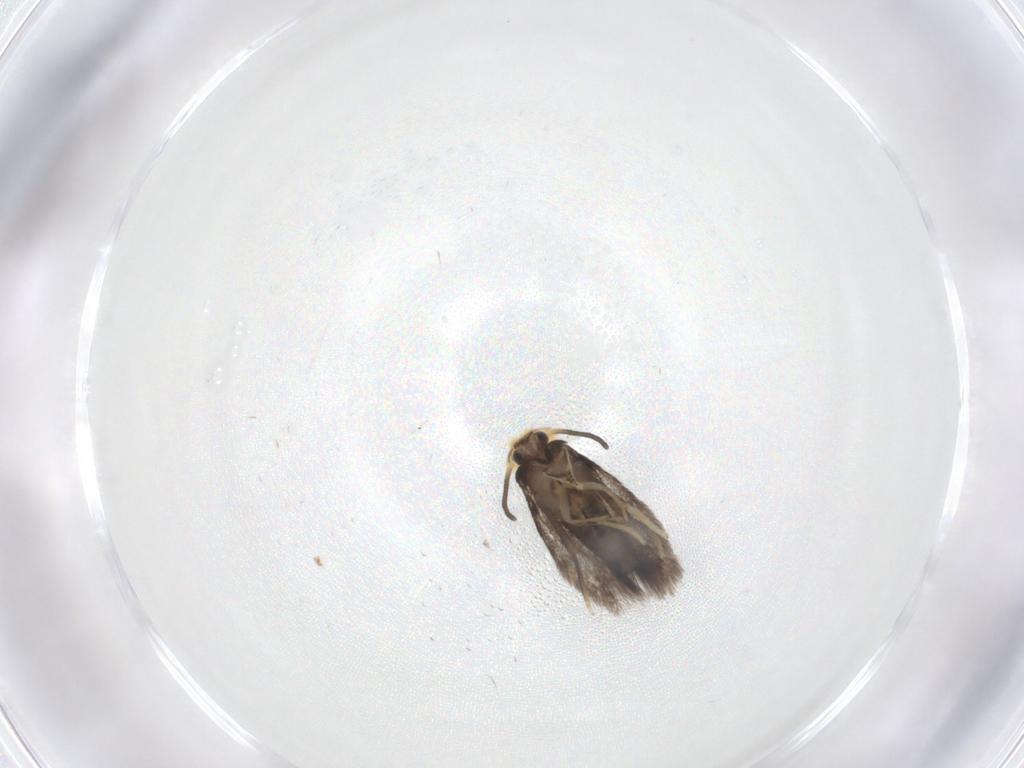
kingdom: Animalia
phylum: Arthropoda
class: Insecta
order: Lepidoptera
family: Nepticulidae
